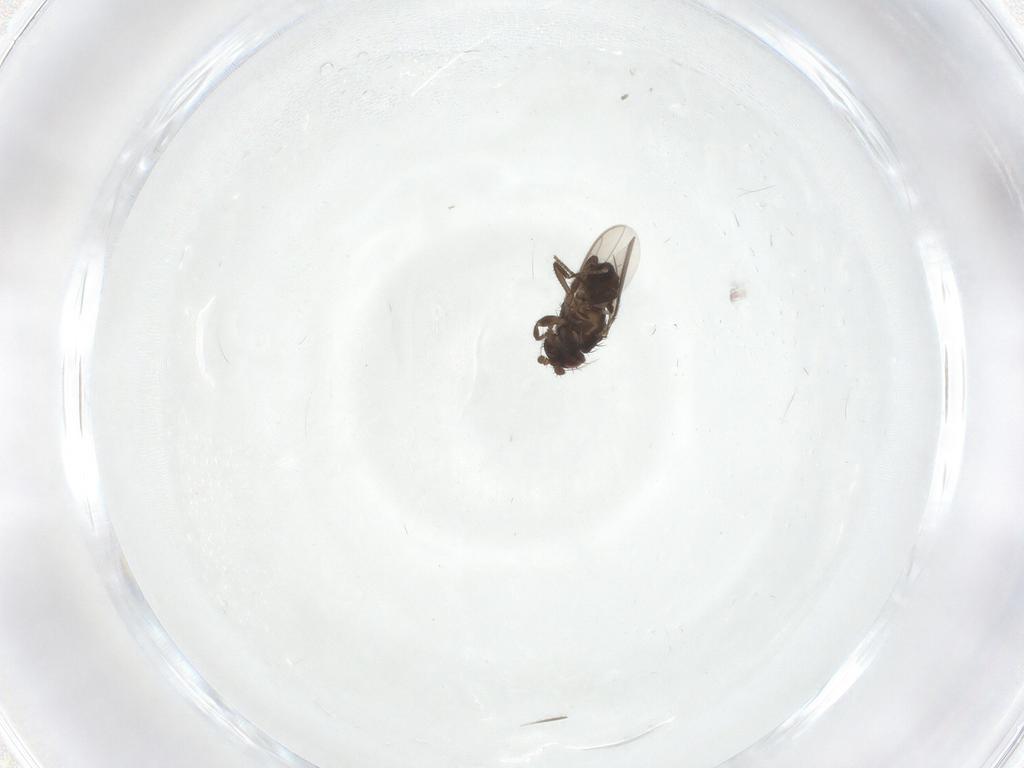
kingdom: Animalia
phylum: Arthropoda
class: Insecta
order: Diptera
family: Sphaeroceridae
